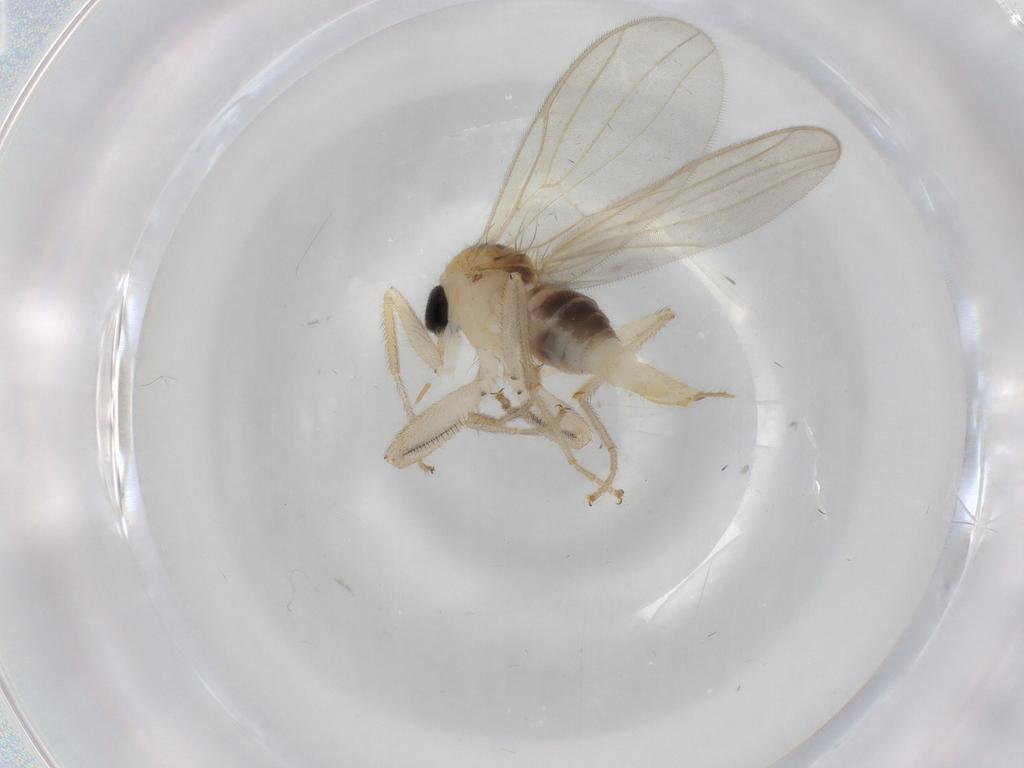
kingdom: Animalia
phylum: Arthropoda
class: Insecta
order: Diptera
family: Hybotidae
